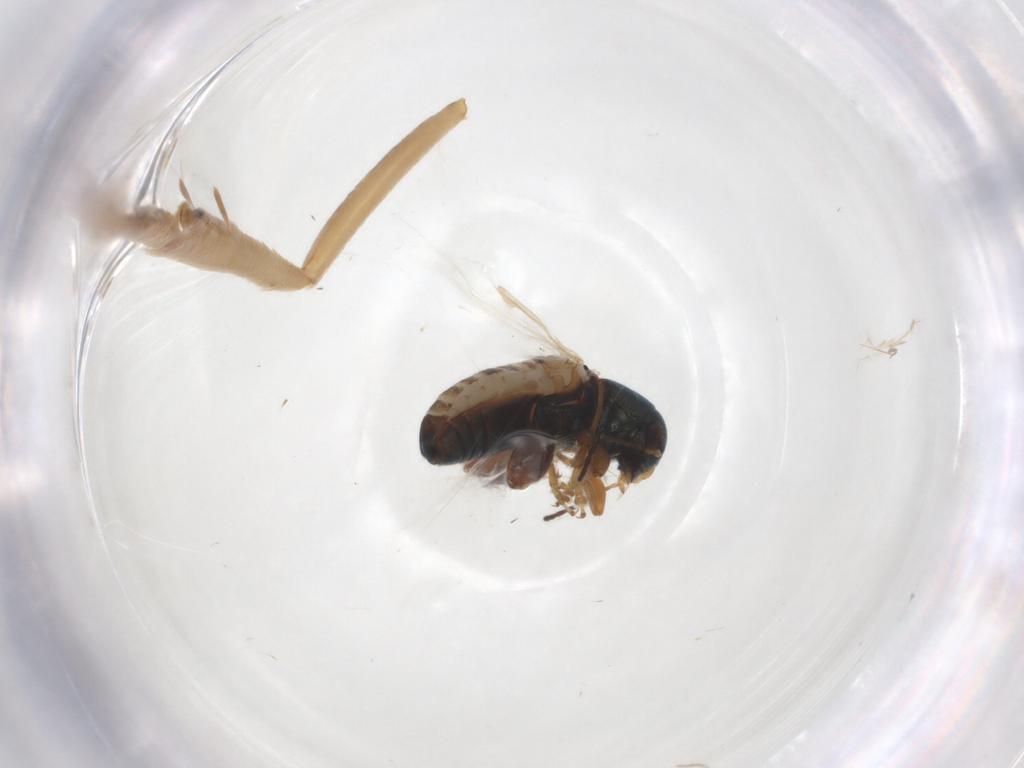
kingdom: Animalia
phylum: Arthropoda
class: Insecta
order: Coleoptera
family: Chrysomelidae
